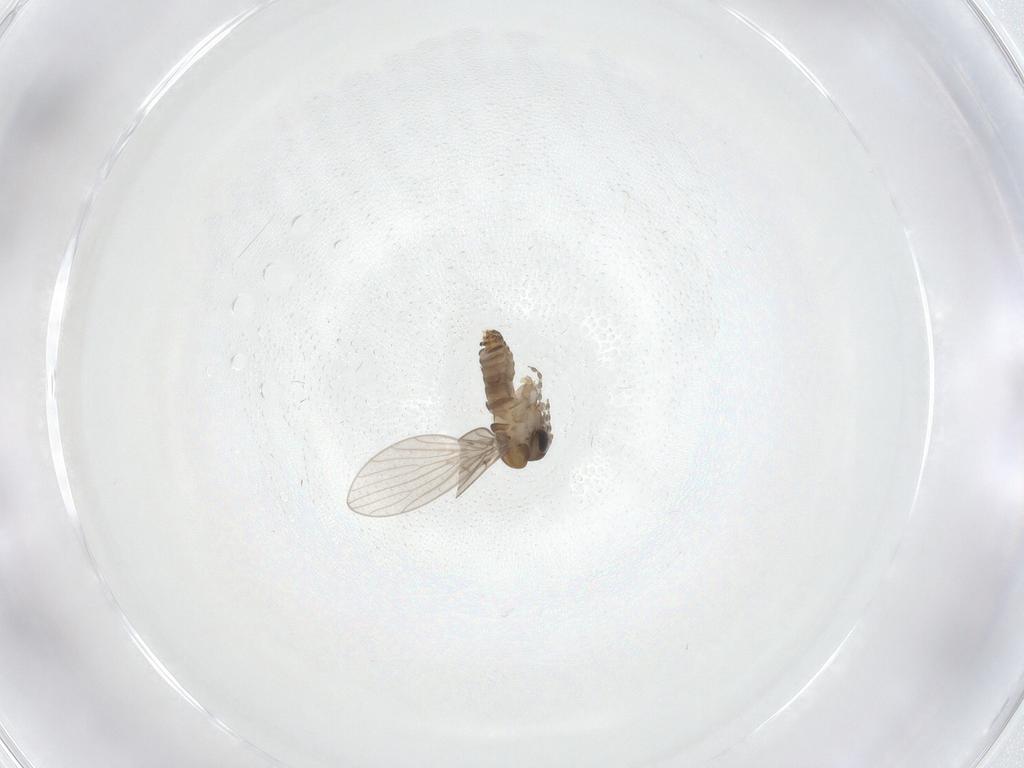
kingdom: Animalia
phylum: Arthropoda
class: Insecta
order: Diptera
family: Psychodidae
